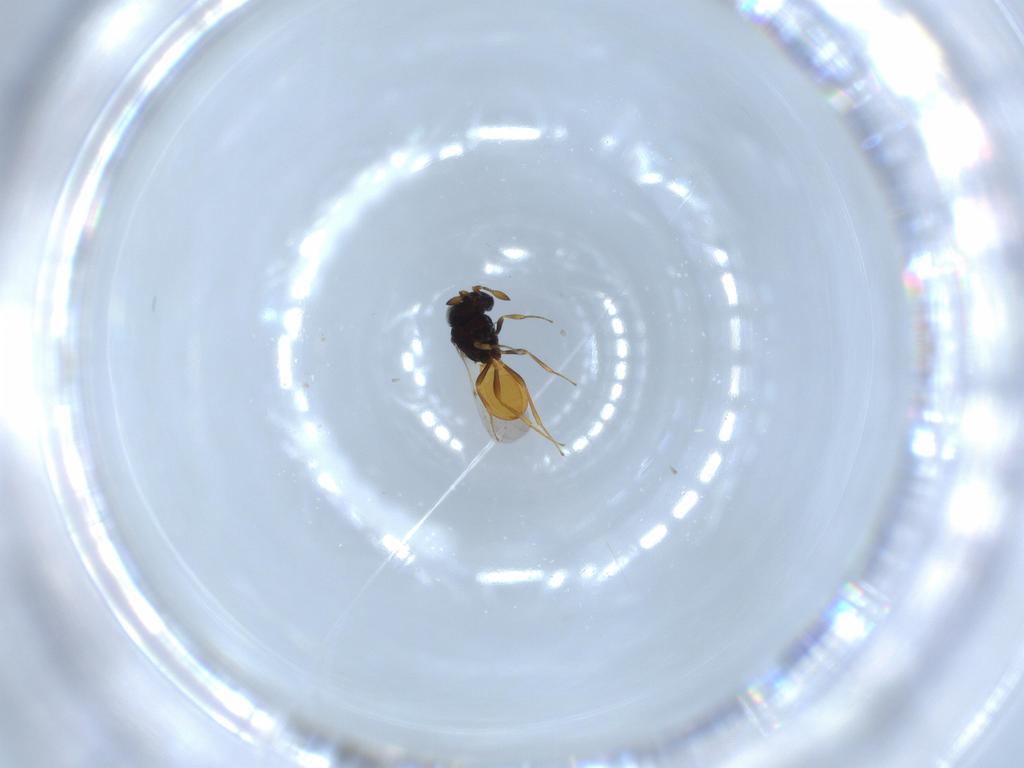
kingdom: Animalia
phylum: Arthropoda
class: Insecta
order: Hymenoptera
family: Scelionidae
